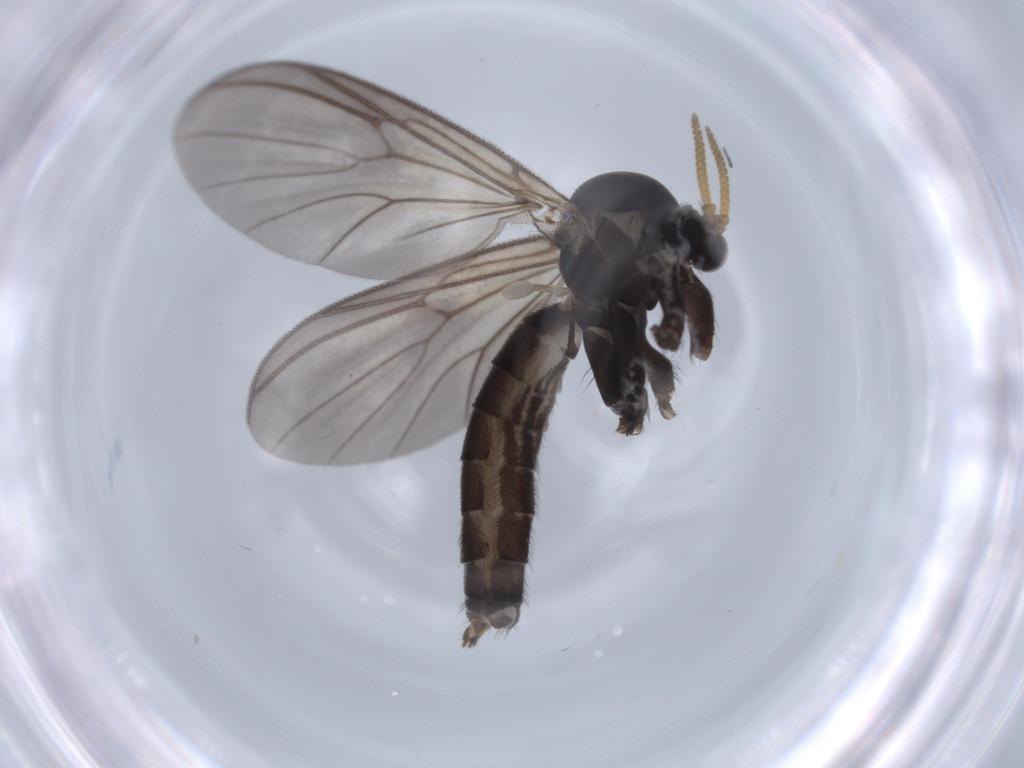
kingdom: Animalia
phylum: Arthropoda
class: Insecta
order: Diptera
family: Mycetophilidae
